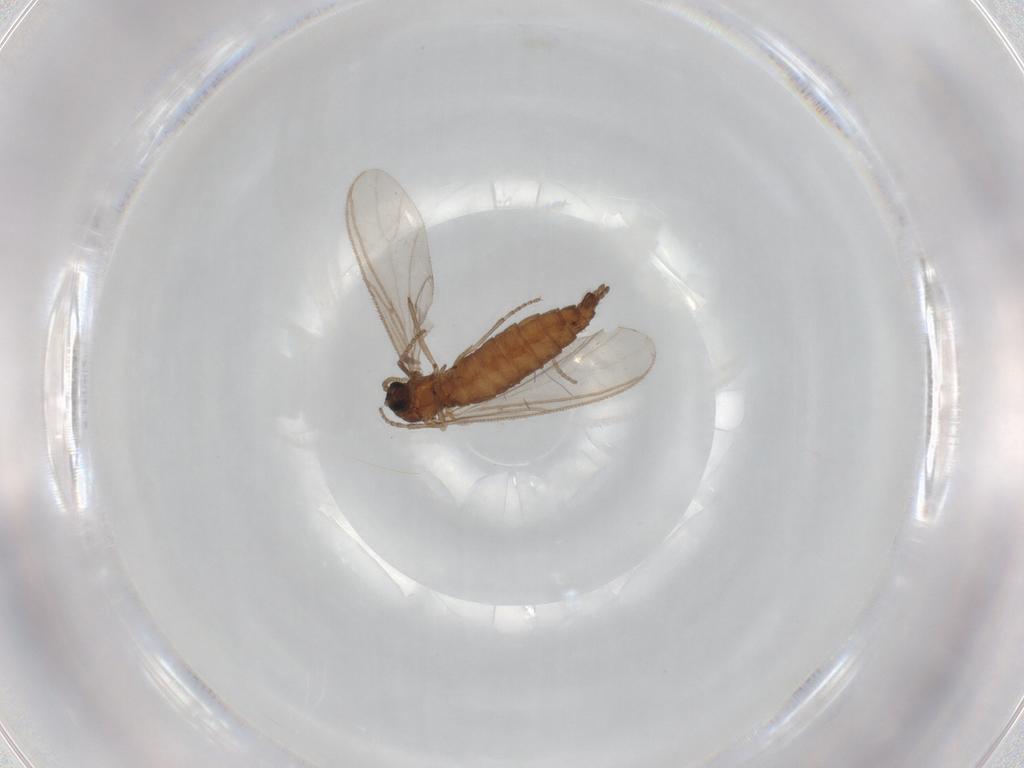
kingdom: Animalia
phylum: Arthropoda
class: Insecta
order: Diptera
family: Sciaridae
